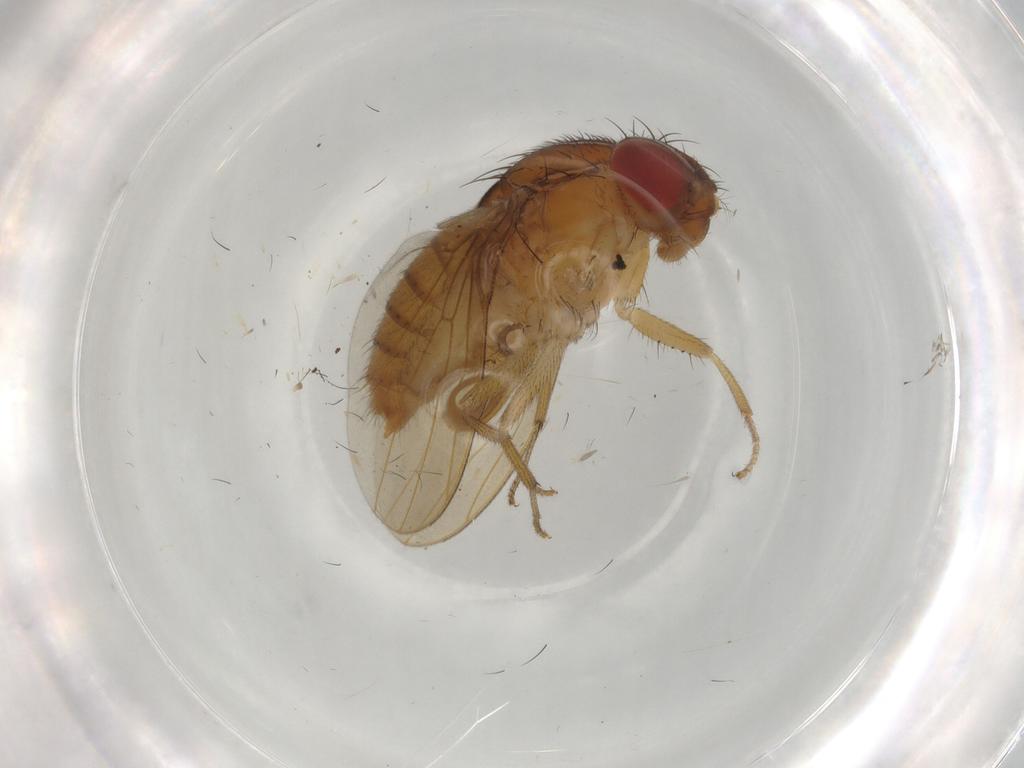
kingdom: Animalia
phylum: Arthropoda
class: Insecta
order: Diptera
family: Drosophilidae
